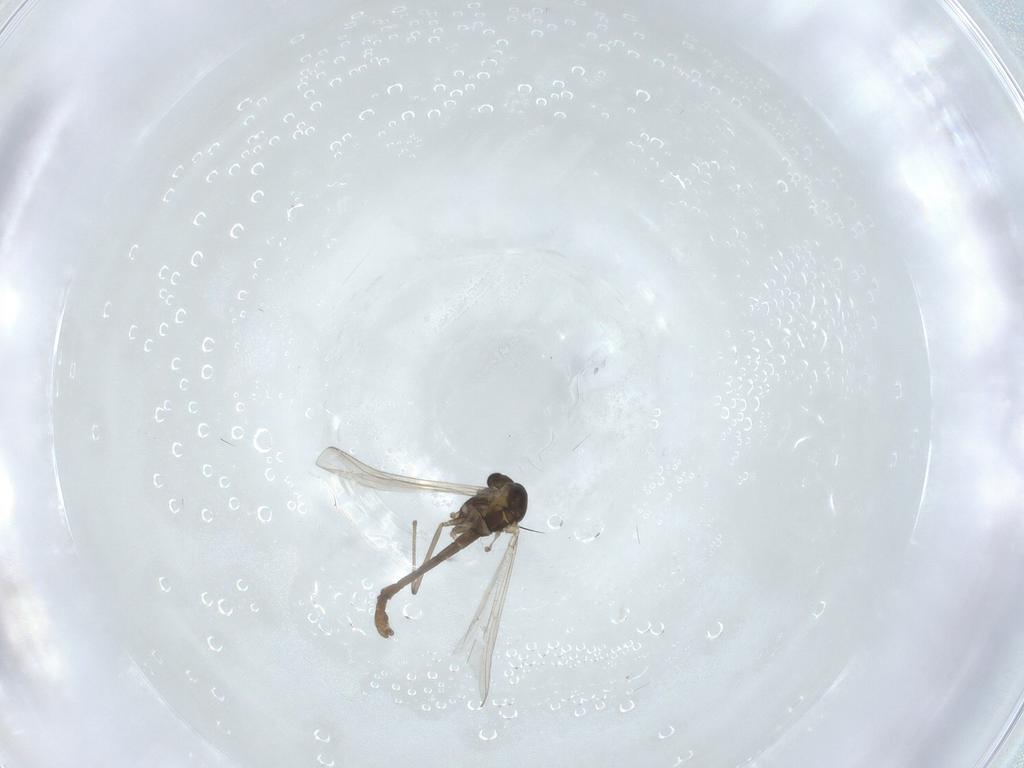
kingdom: Animalia
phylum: Arthropoda
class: Insecta
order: Diptera
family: Chironomidae
